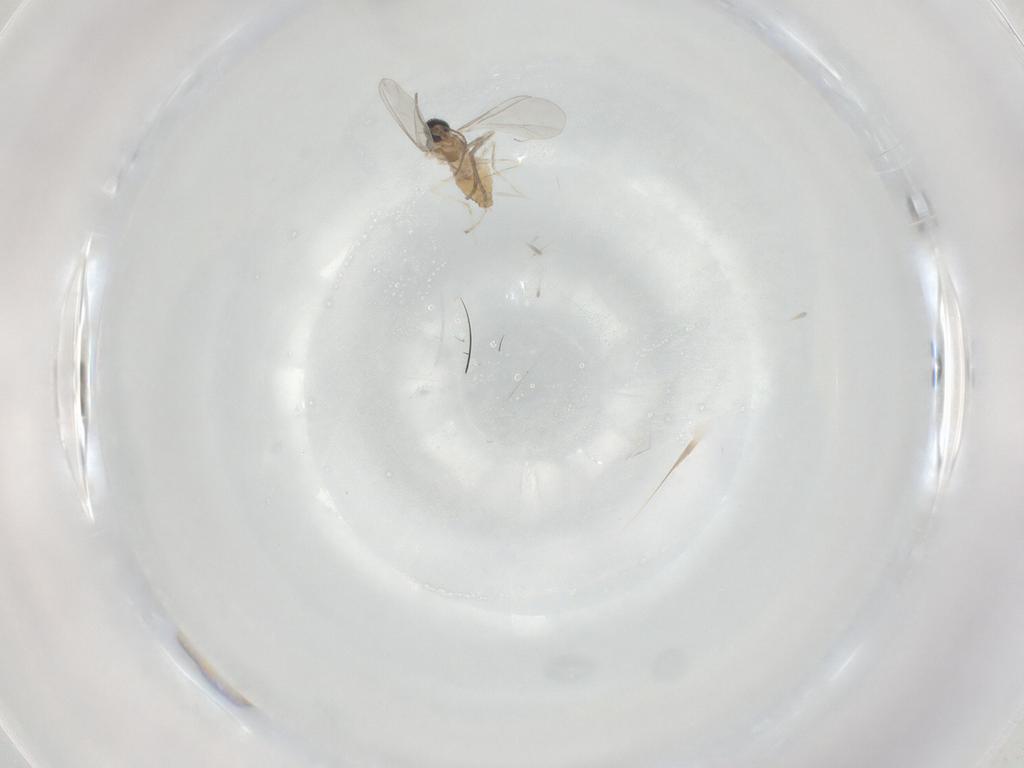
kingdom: Animalia
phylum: Arthropoda
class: Insecta
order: Diptera
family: Cecidomyiidae
